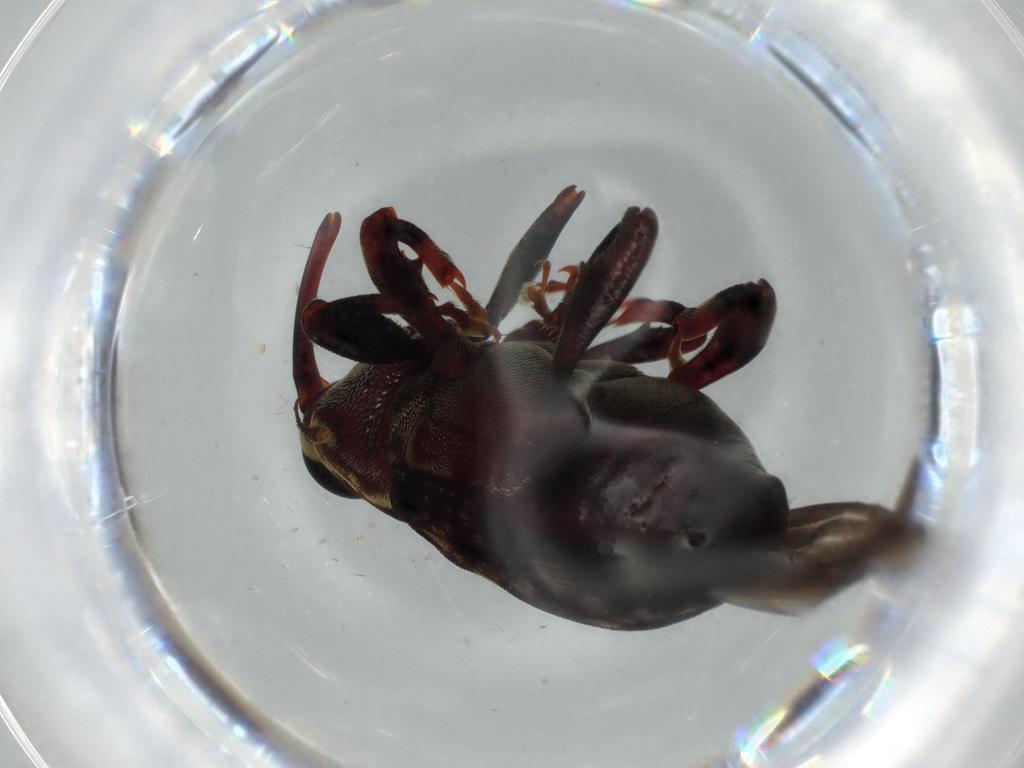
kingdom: Animalia
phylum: Arthropoda
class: Insecta
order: Coleoptera
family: Curculionidae
